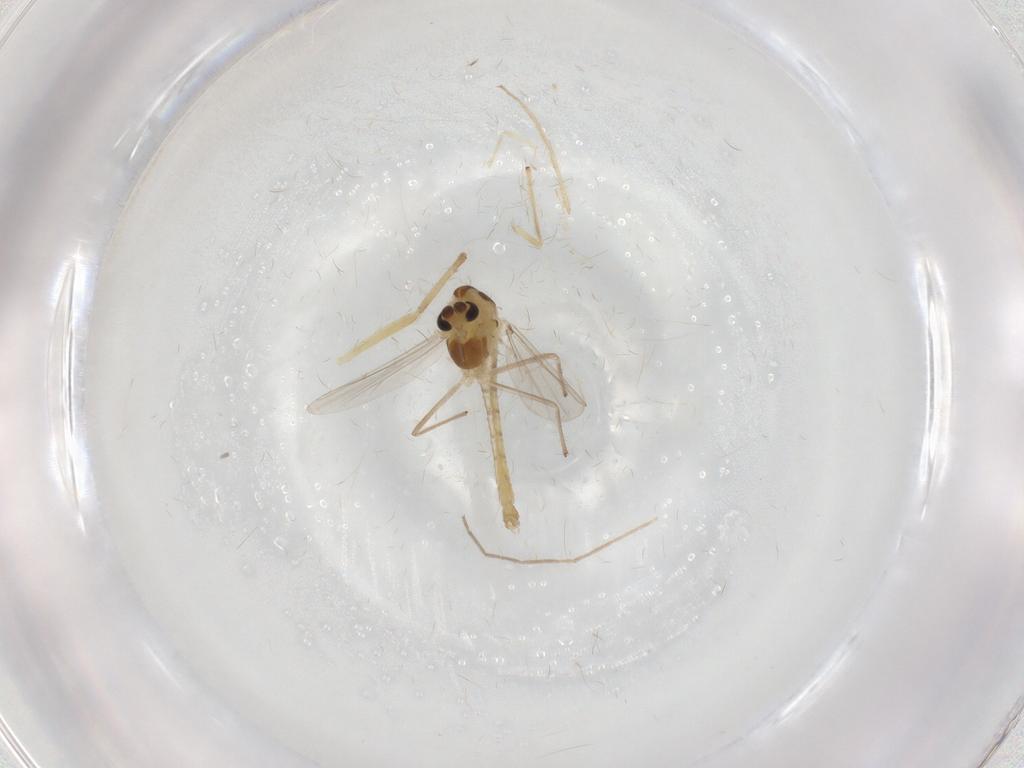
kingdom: Animalia
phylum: Arthropoda
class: Insecta
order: Diptera
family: Chironomidae
